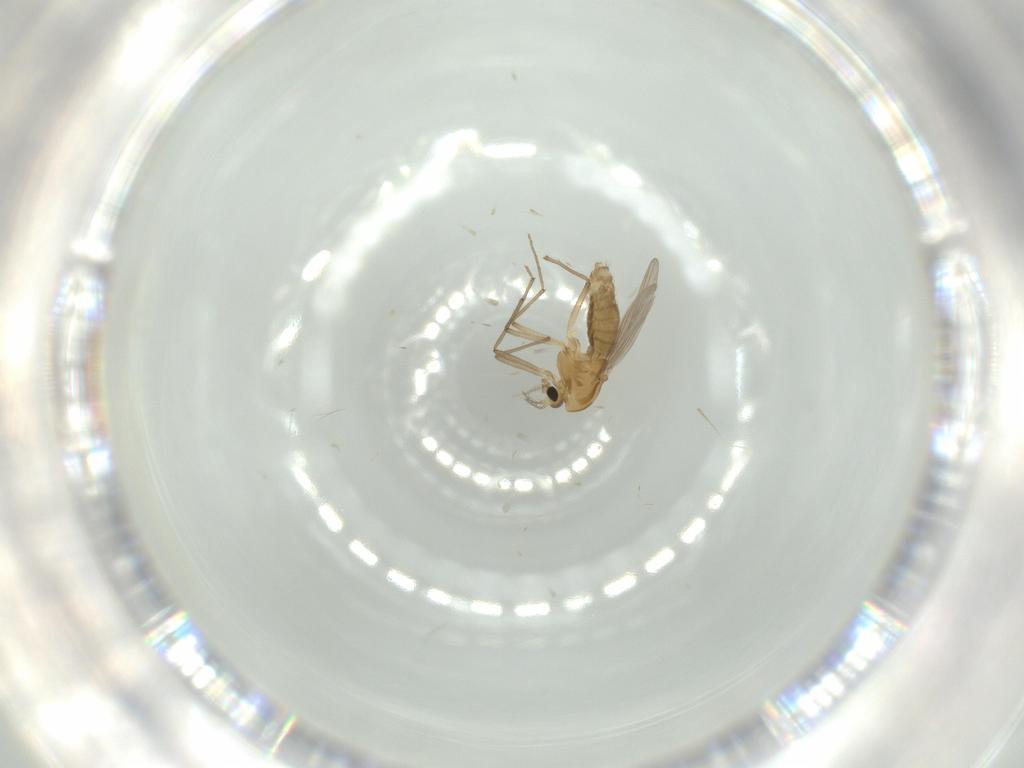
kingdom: Animalia
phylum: Arthropoda
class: Insecta
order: Diptera
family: Chironomidae
